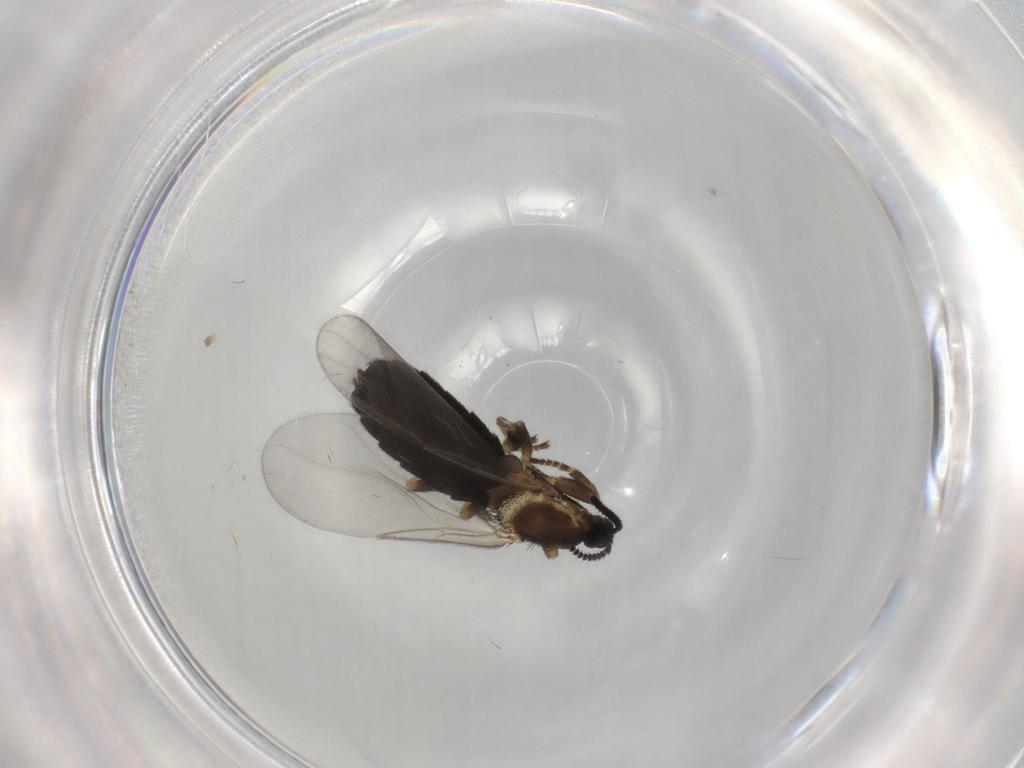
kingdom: Animalia
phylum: Arthropoda
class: Insecta
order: Diptera
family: Scatopsidae
